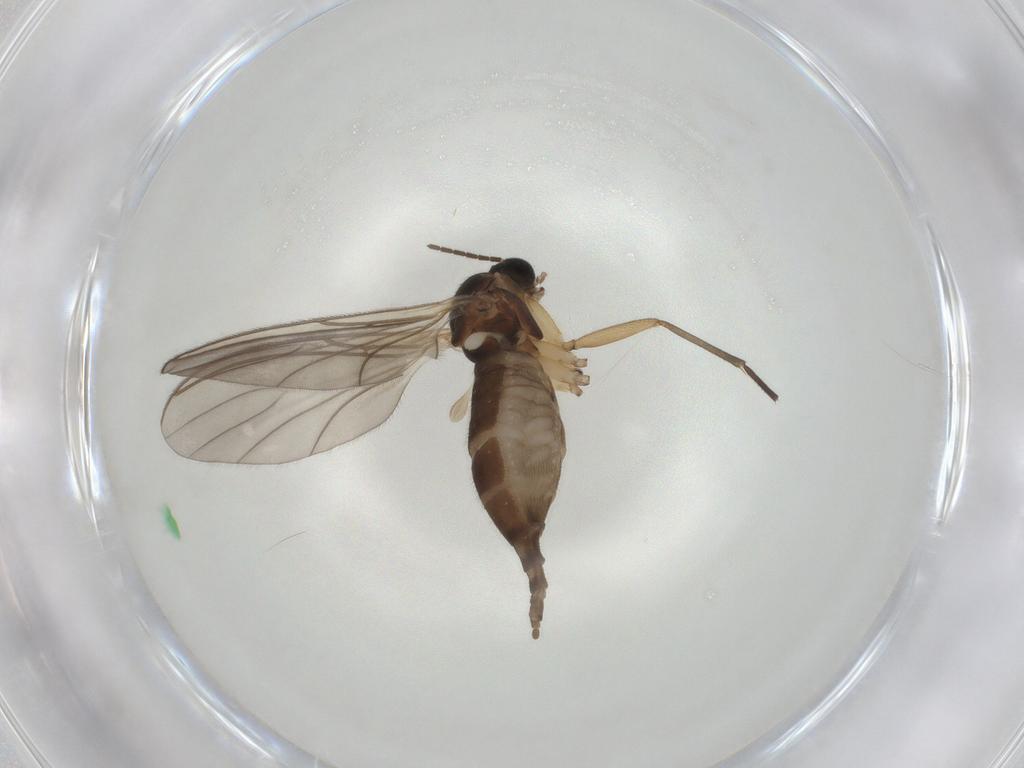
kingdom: Animalia
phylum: Arthropoda
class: Insecta
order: Diptera
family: Sciaridae
